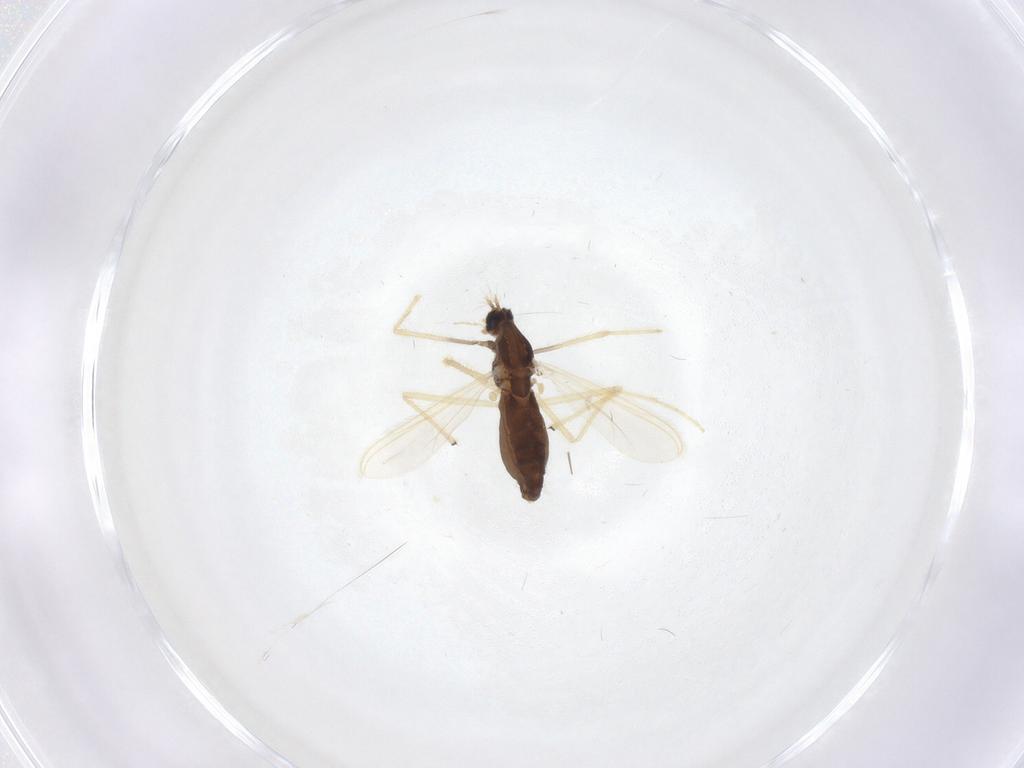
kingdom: Animalia
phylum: Arthropoda
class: Insecta
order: Diptera
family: Chironomidae
